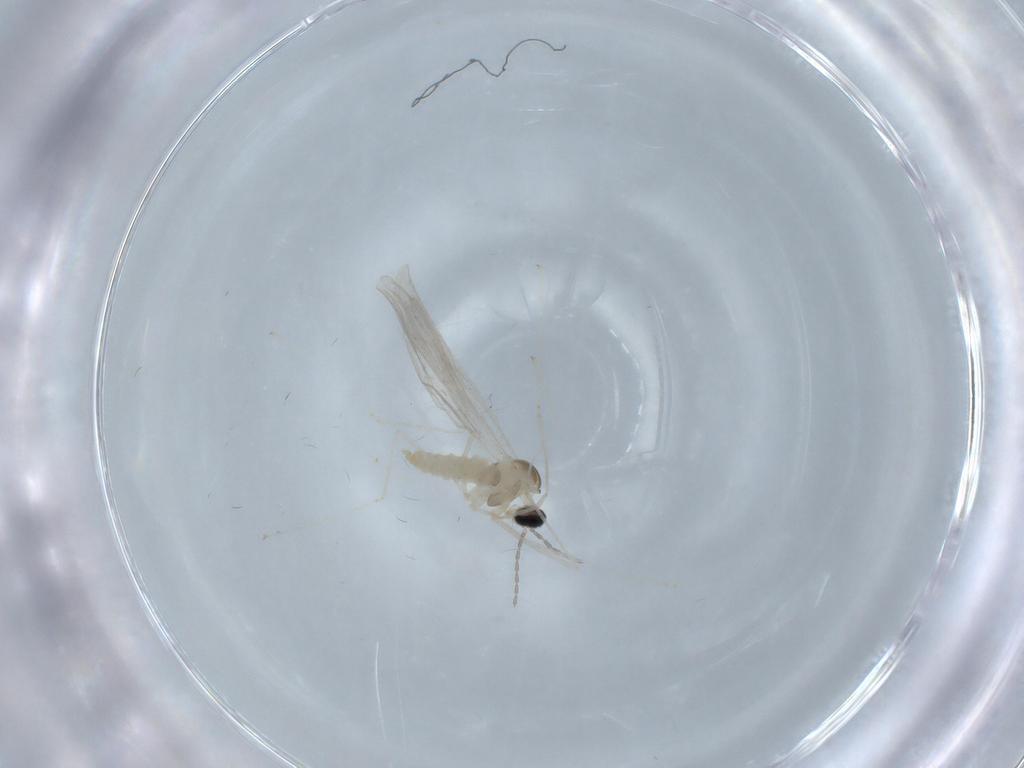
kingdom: Animalia
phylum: Arthropoda
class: Insecta
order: Diptera
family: Cecidomyiidae
